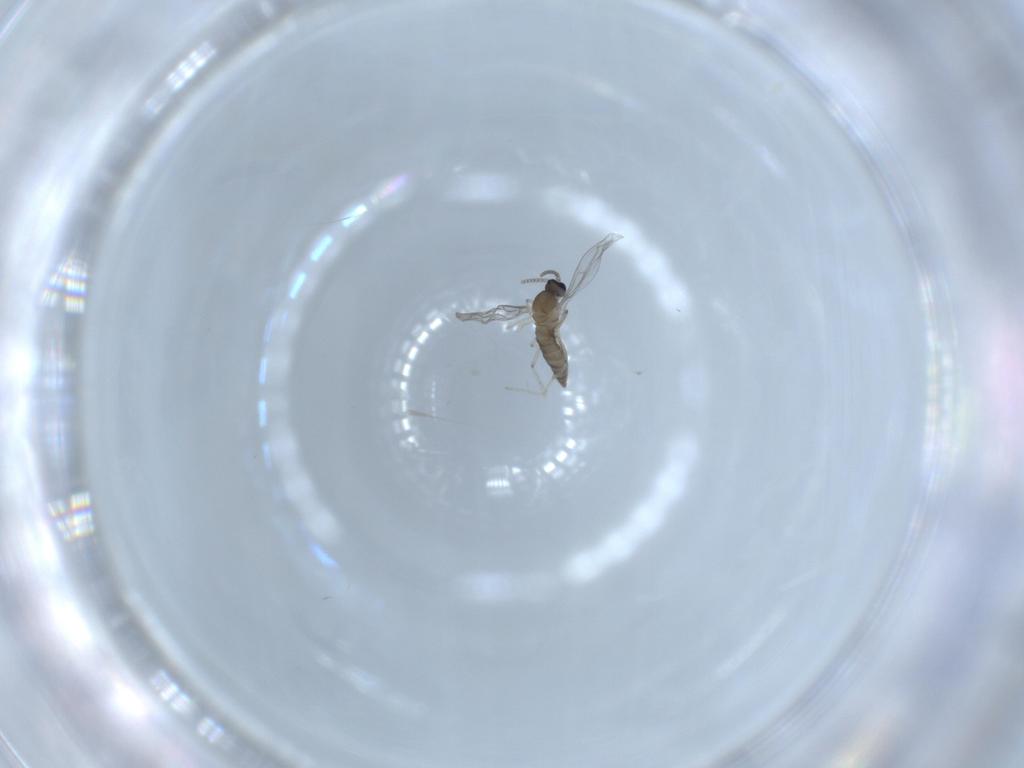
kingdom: Animalia
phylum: Arthropoda
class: Insecta
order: Diptera
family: Cecidomyiidae
